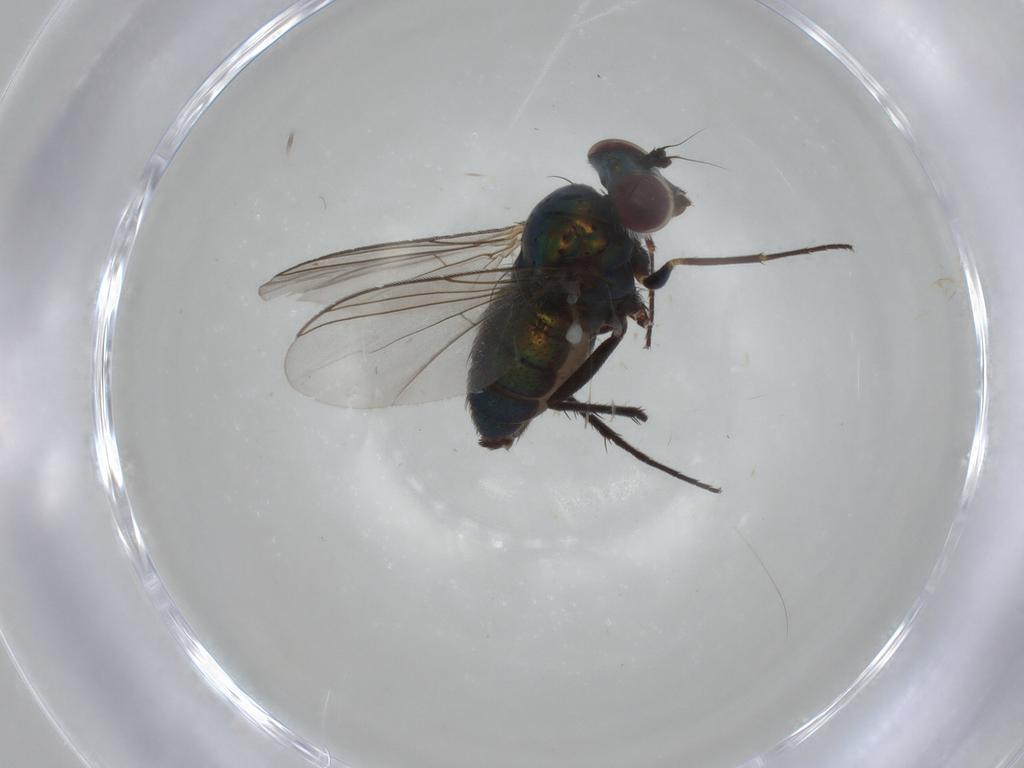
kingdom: Animalia
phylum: Arthropoda
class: Insecta
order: Diptera
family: Dolichopodidae
